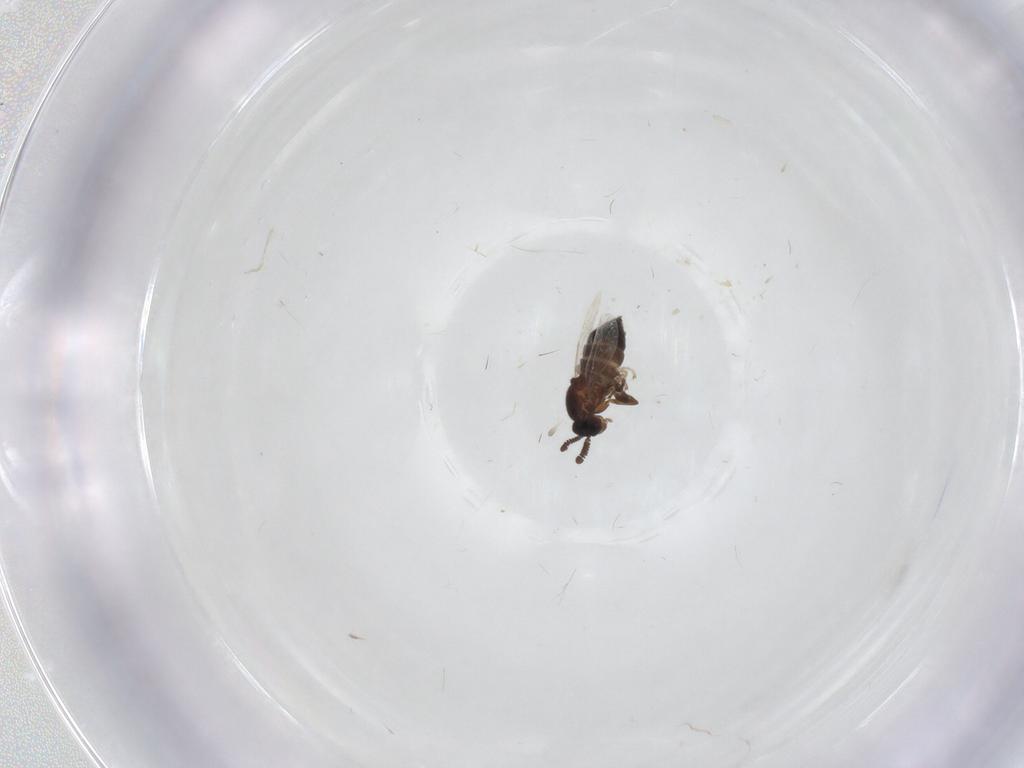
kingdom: Animalia
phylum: Arthropoda
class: Insecta
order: Diptera
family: Scatopsidae
